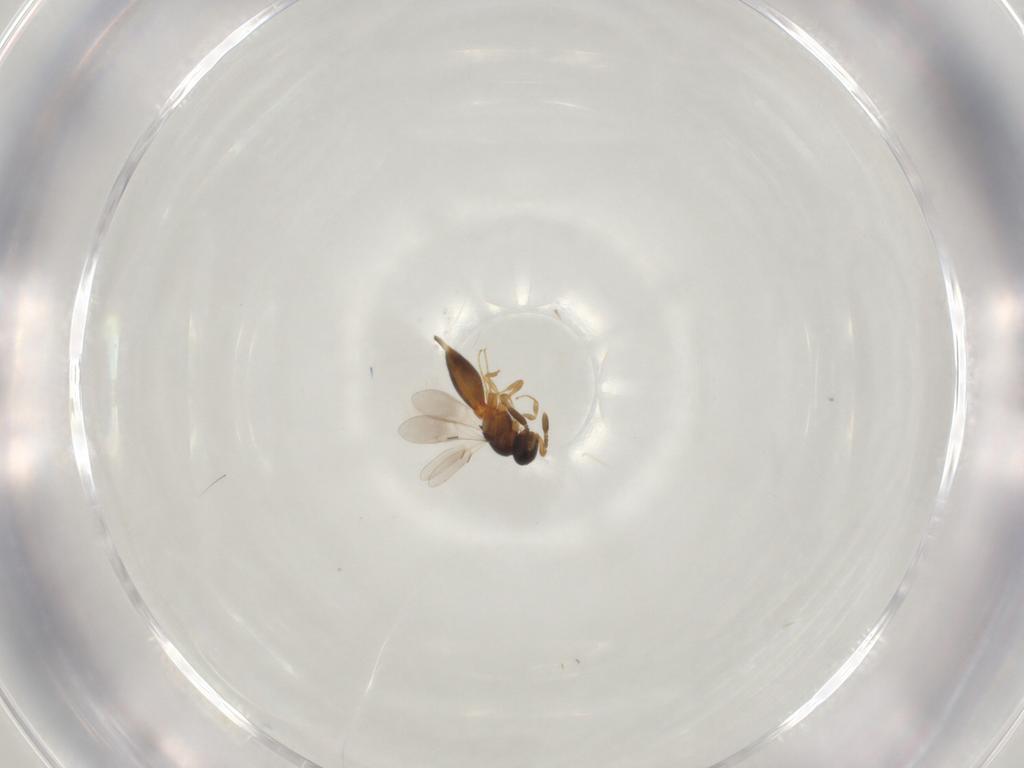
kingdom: Animalia
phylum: Arthropoda
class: Insecta
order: Hymenoptera
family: Scelionidae
